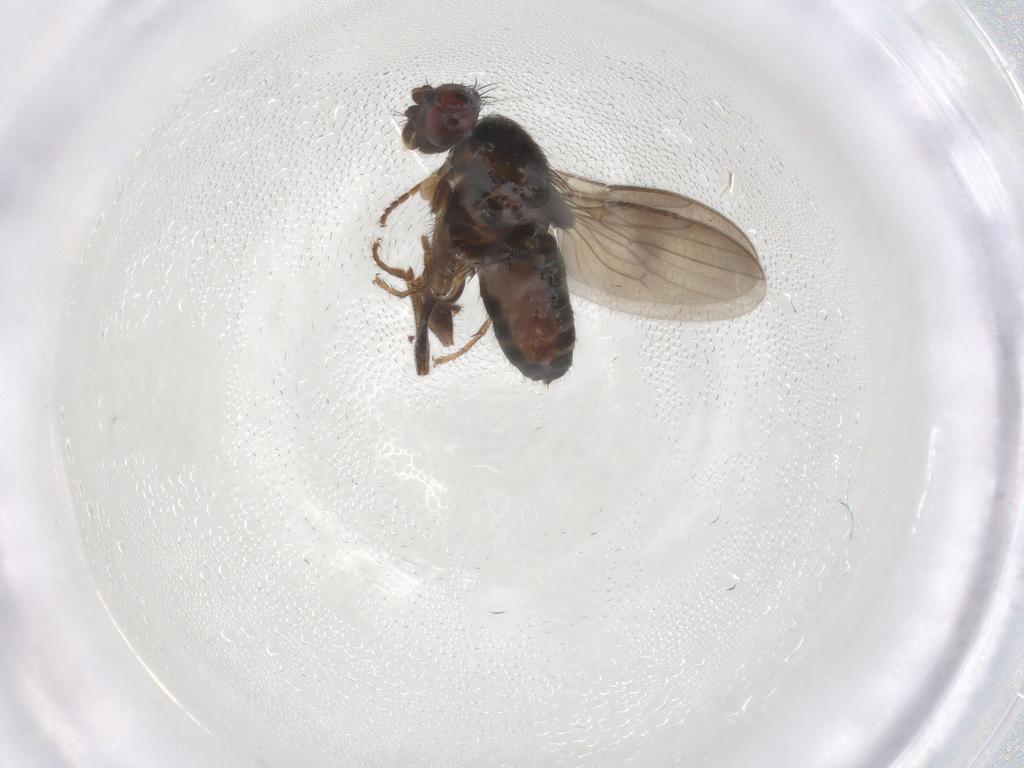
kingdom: Animalia
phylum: Arthropoda
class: Insecta
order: Diptera
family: Sphaeroceridae
